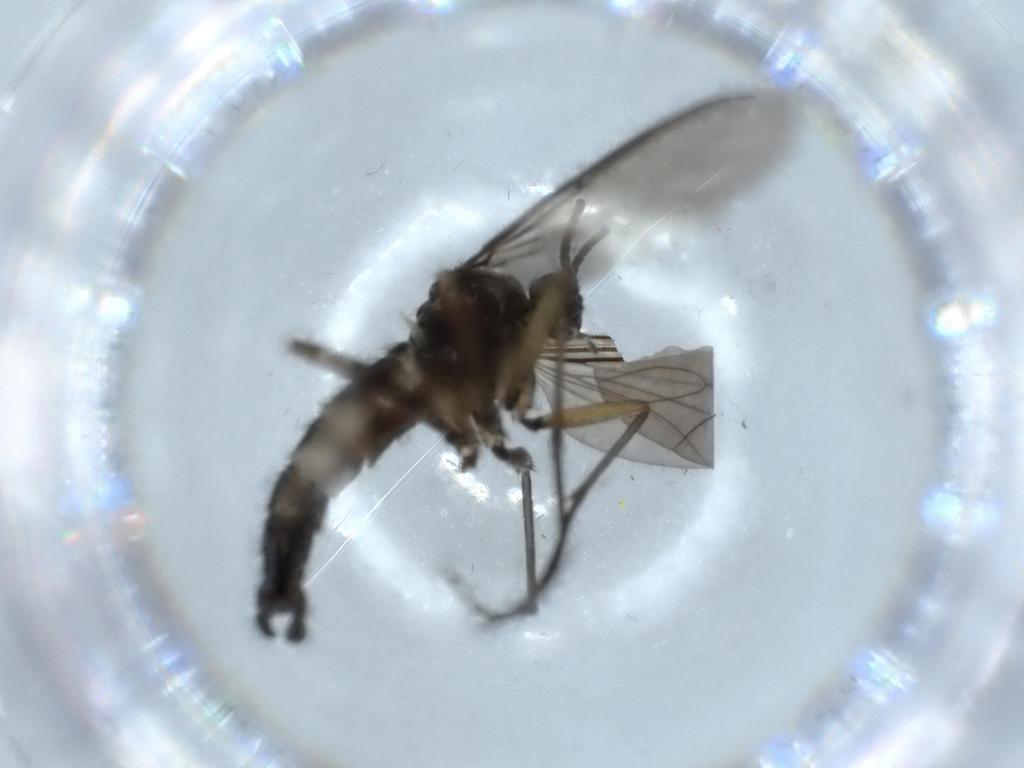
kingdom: Animalia
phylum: Arthropoda
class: Insecta
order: Diptera
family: Sciaridae
